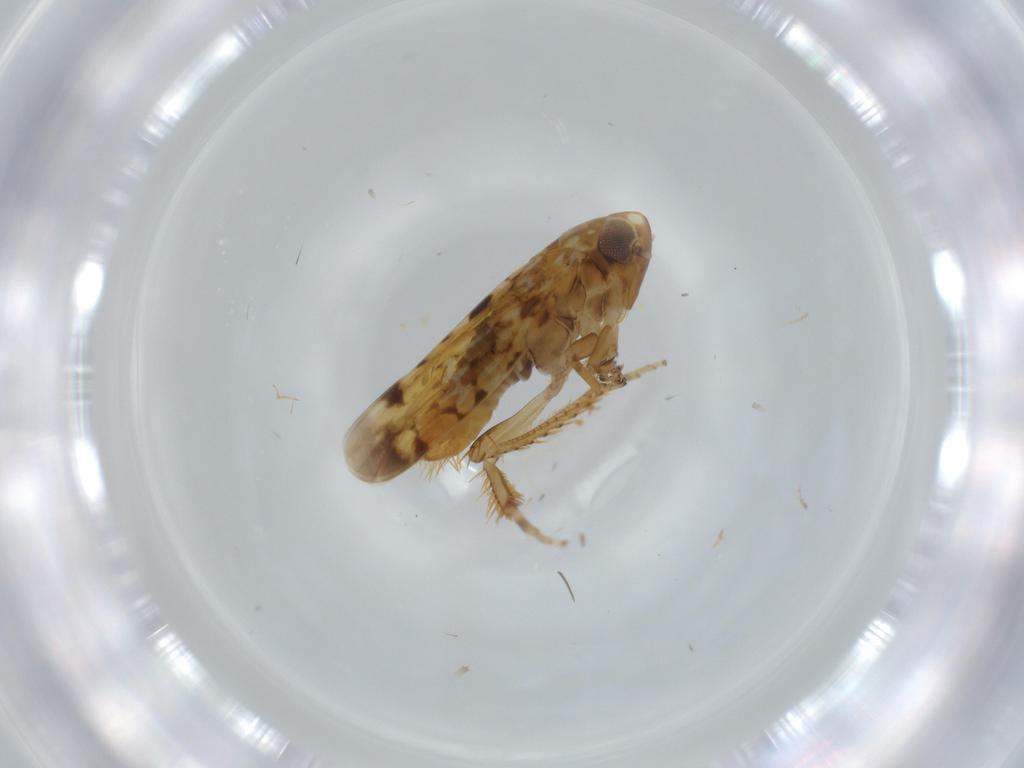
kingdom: Animalia
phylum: Arthropoda
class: Insecta
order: Hemiptera
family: Cicadellidae
